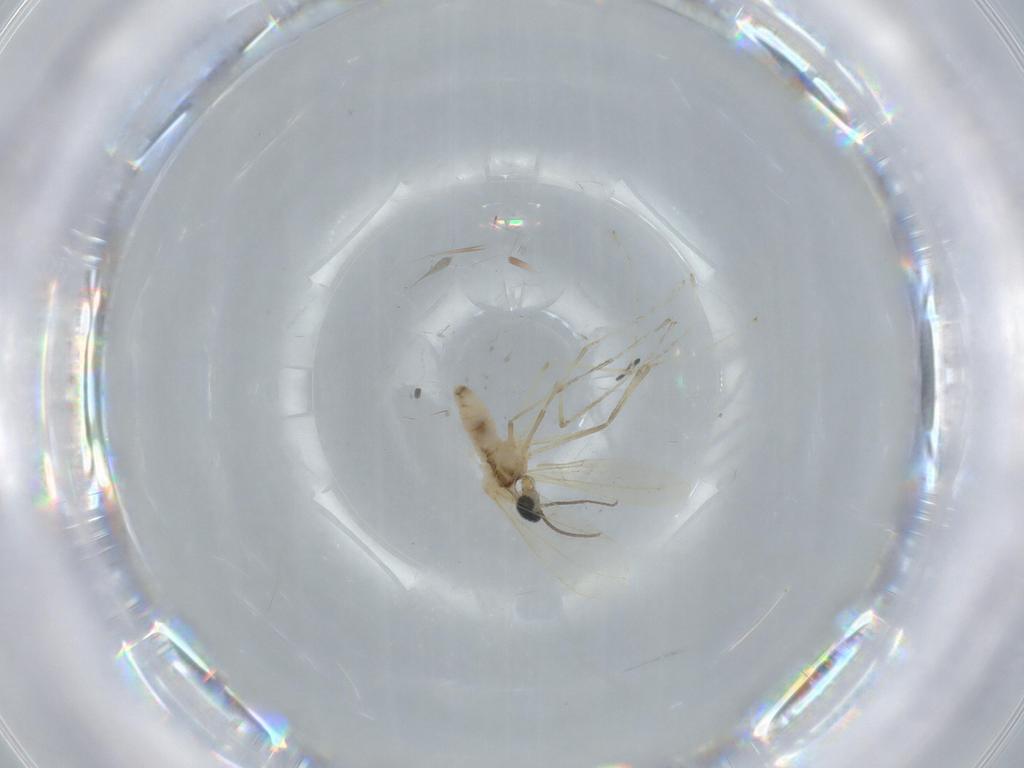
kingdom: Animalia
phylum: Arthropoda
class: Insecta
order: Diptera
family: Cecidomyiidae
